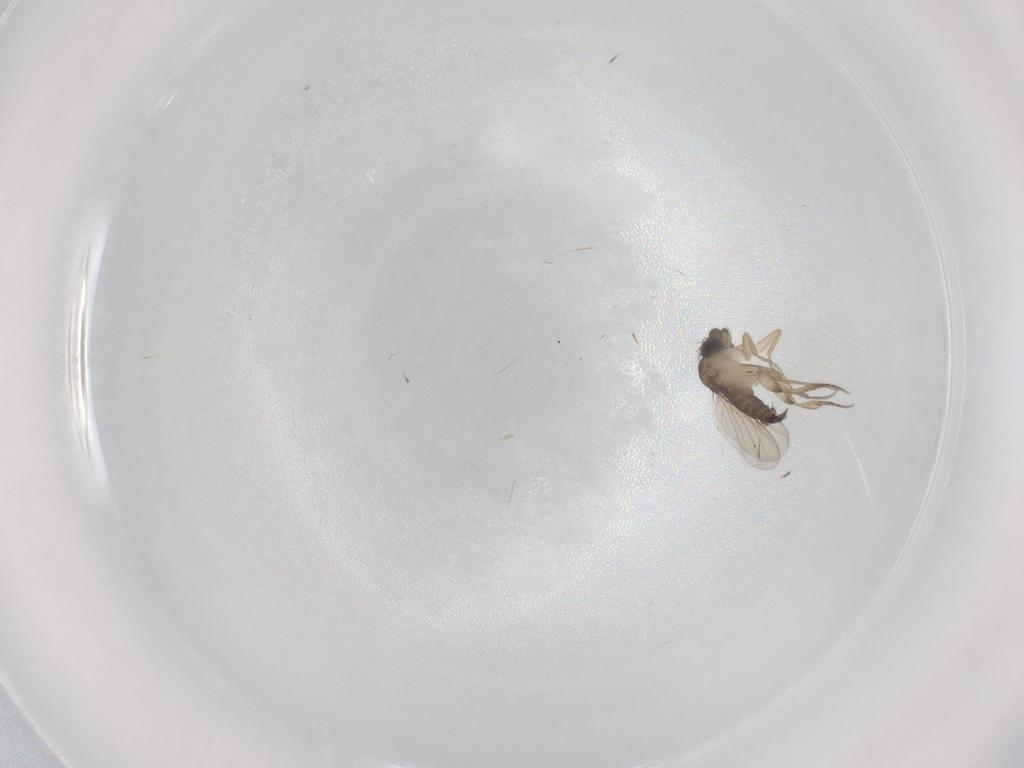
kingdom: Animalia
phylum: Arthropoda
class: Insecta
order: Diptera
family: Phoridae
